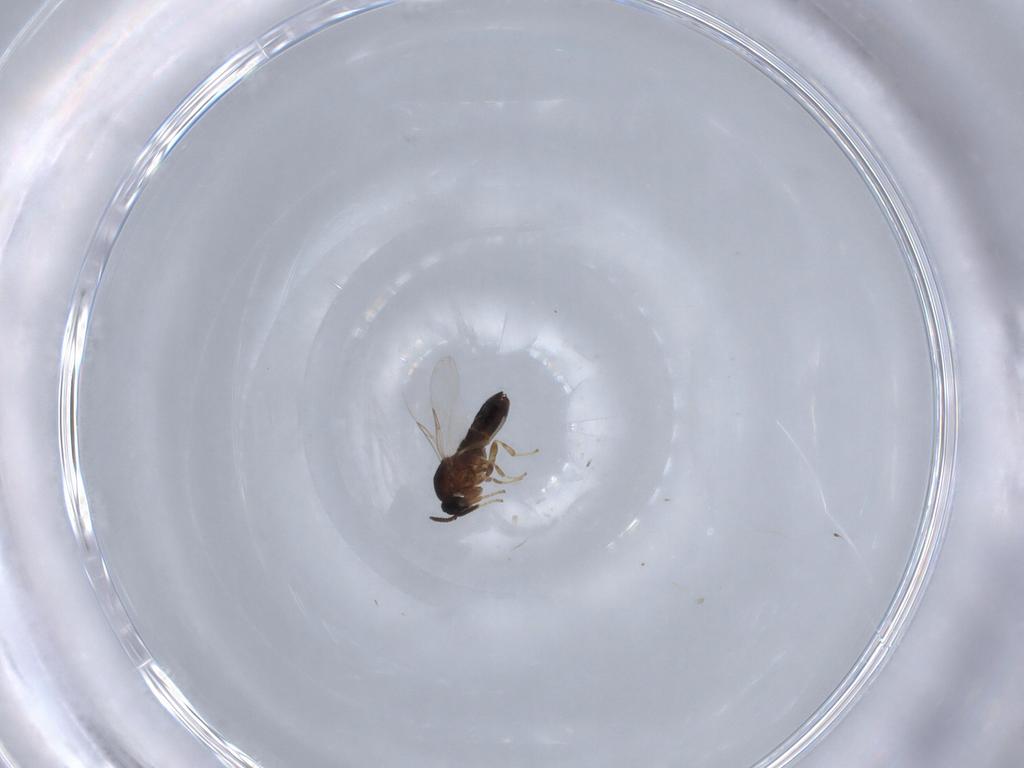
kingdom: Animalia
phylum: Arthropoda
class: Insecta
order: Diptera
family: Scatopsidae
